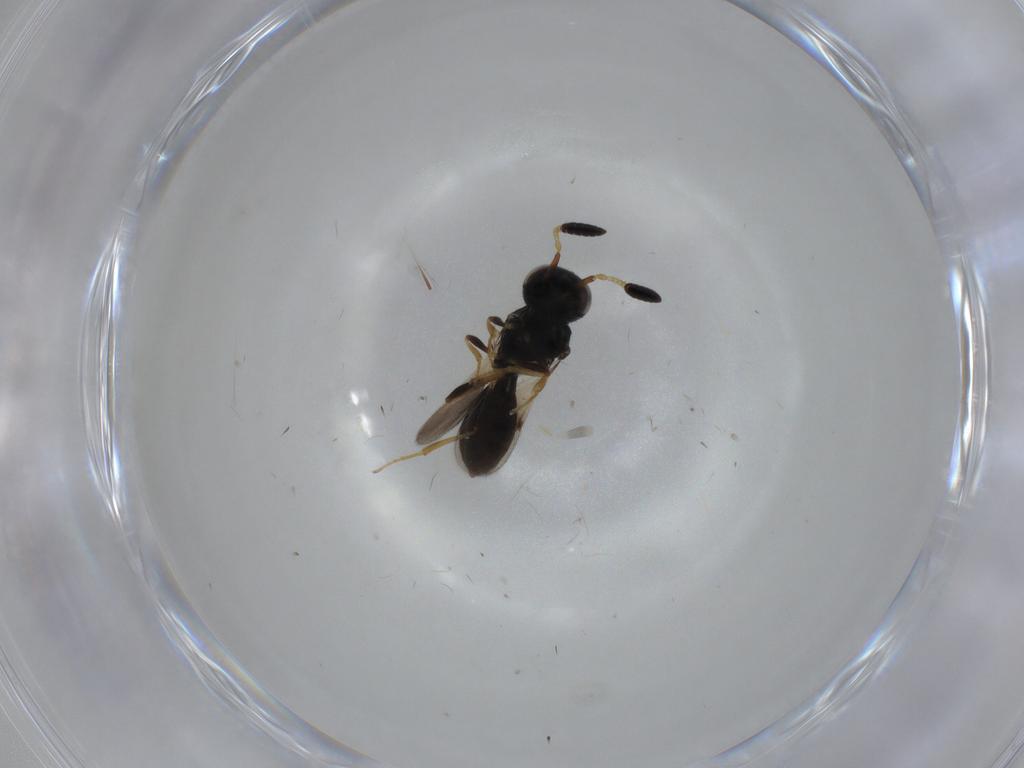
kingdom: Animalia
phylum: Arthropoda
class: Insecta
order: Hymenoptera
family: Scelionidae
